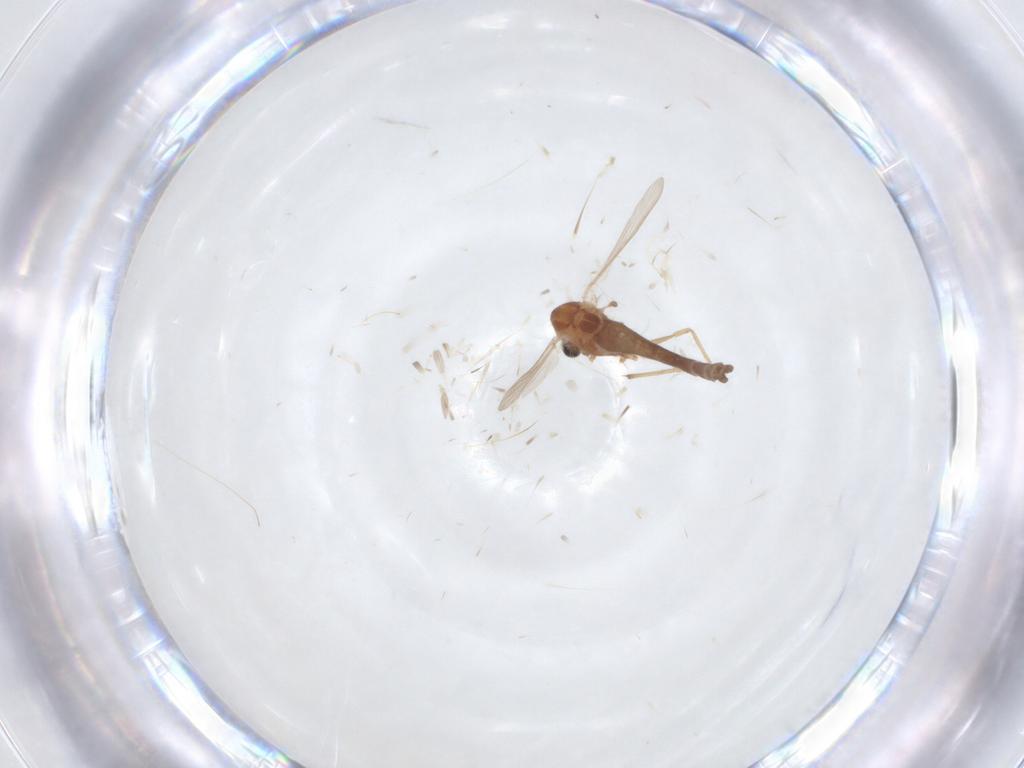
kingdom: Animalia
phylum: Arthropoda
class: Insecta
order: Diptera
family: Chironomidae
